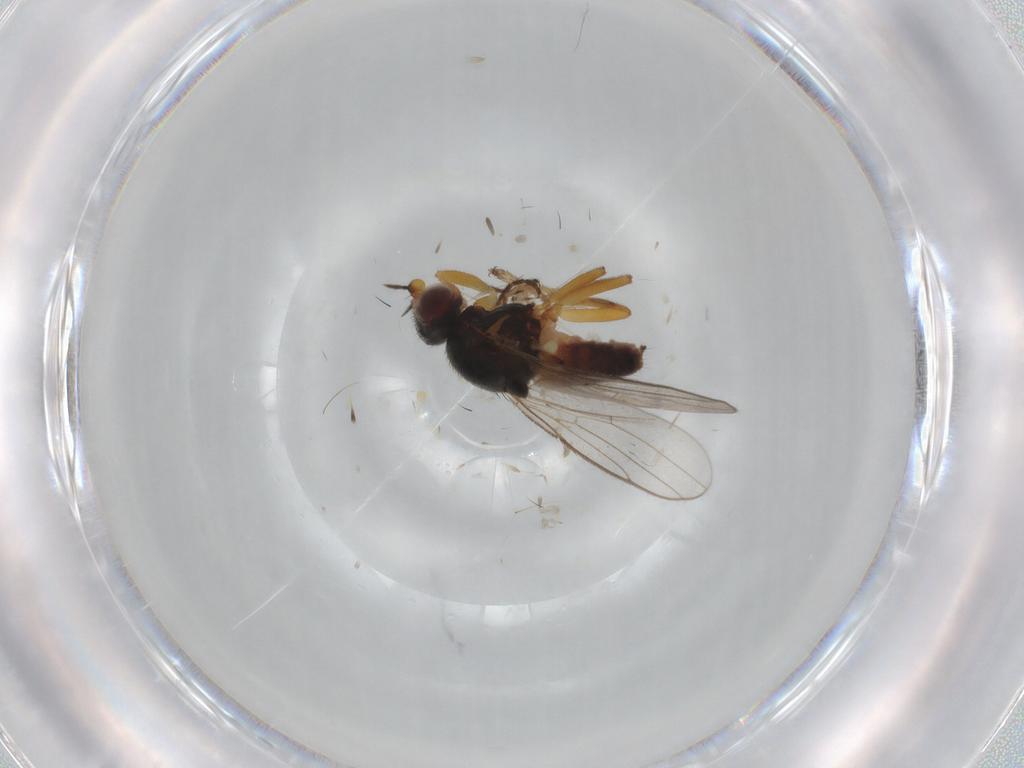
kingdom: Animalia
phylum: Arthropoda
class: Insecta
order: Diptera
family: Chloropidae
